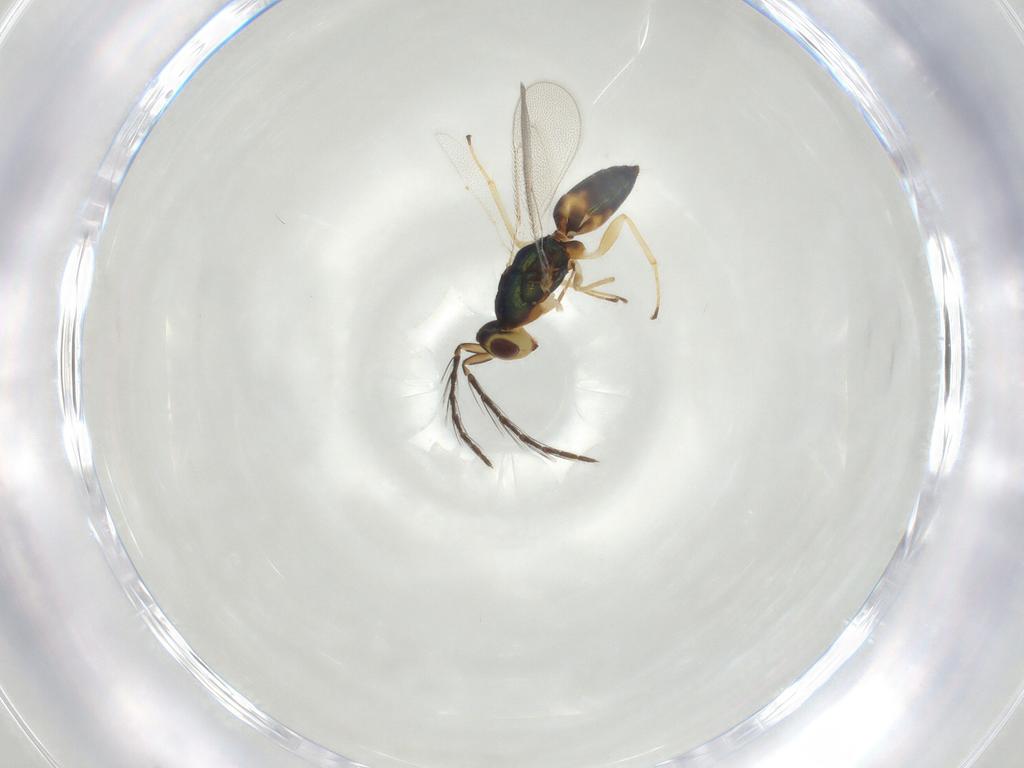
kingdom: Animalia
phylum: Arthropoda
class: Insecta
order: Hymenoptera
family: Eulophidae
